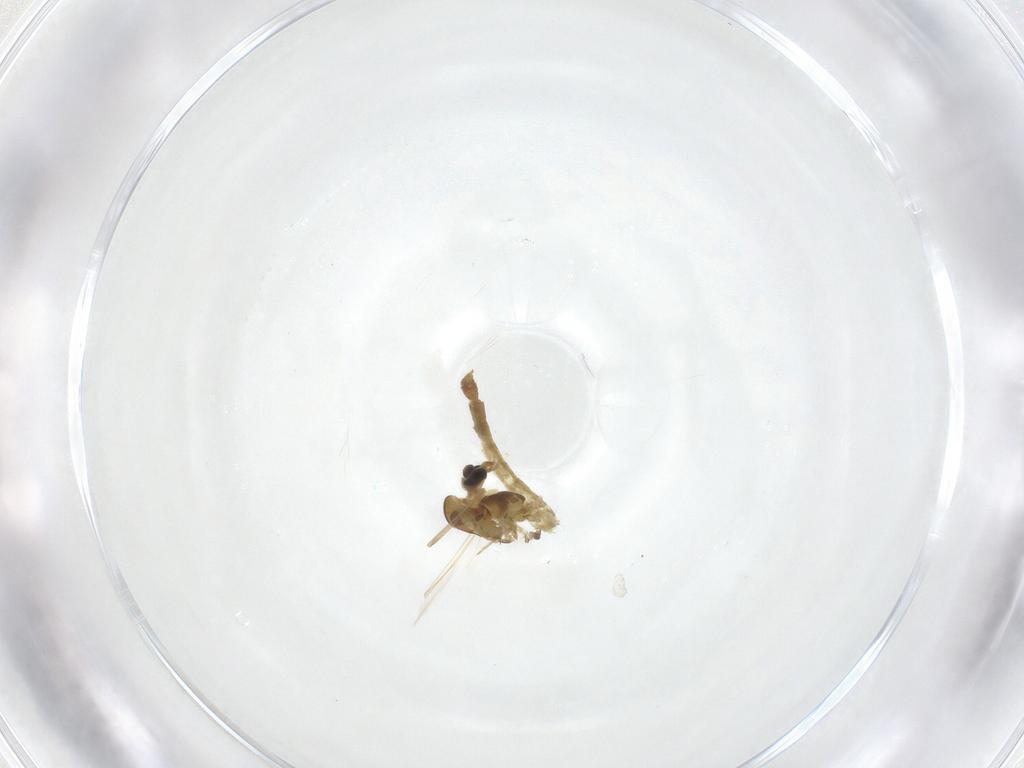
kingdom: Animalia
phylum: Arthropoda
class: Insecta
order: Diptera
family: Chironomidae
